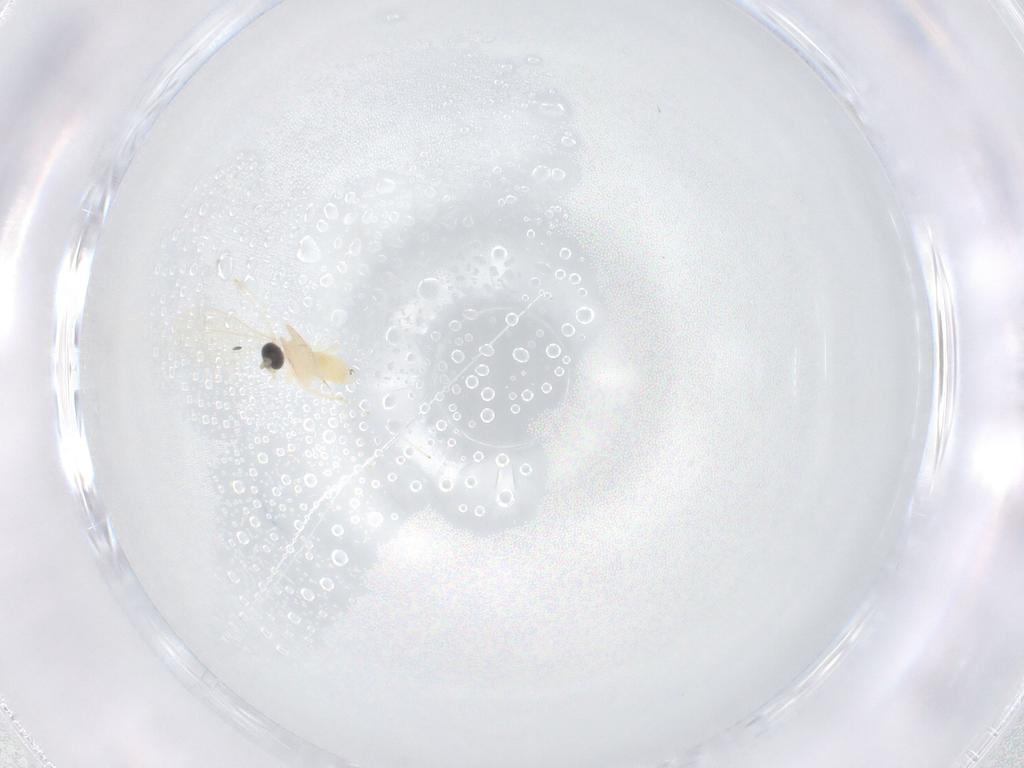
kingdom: Animalia
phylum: Arthropoda
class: Insecta
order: Diptera
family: Cecidomyiidae
